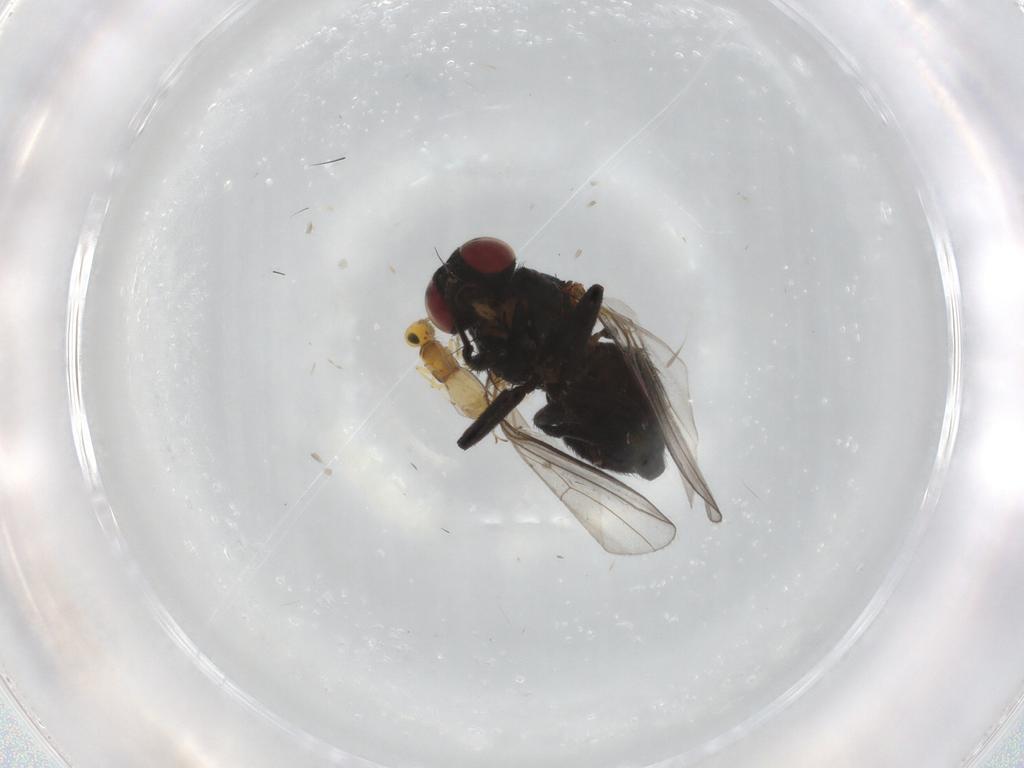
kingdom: Animalia
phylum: Arthropoda
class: Insecta
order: Diptera
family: Agromyzidae
